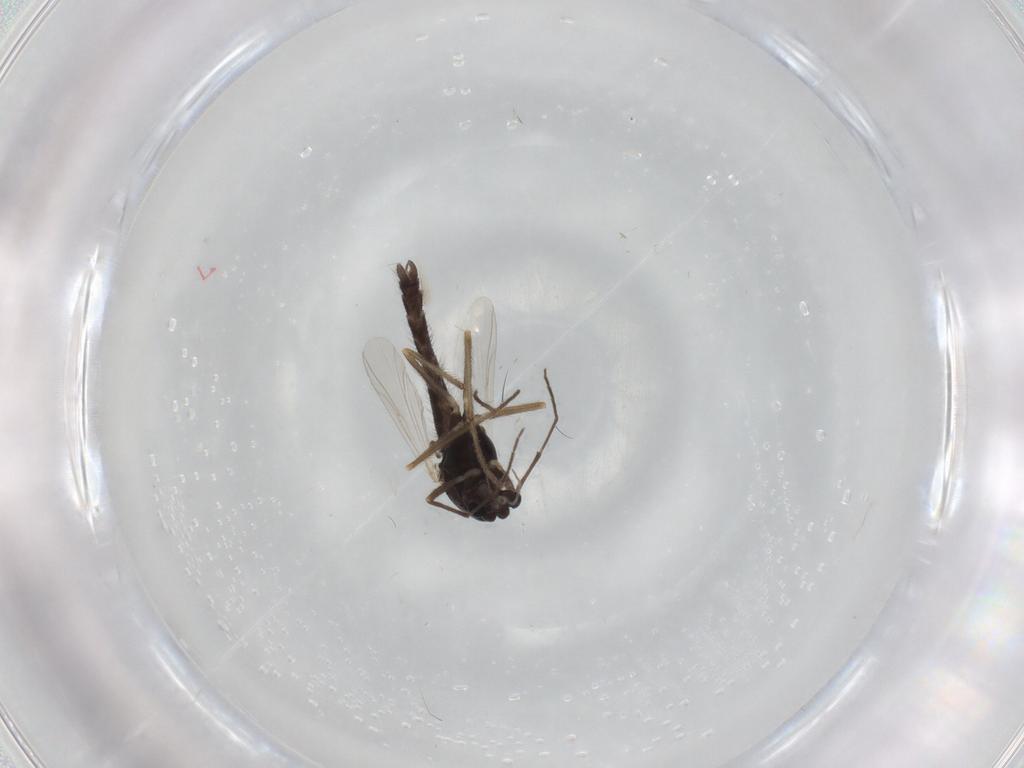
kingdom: Animalia
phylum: Arthropoda
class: Insecta
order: Diptera
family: Chironomidae
